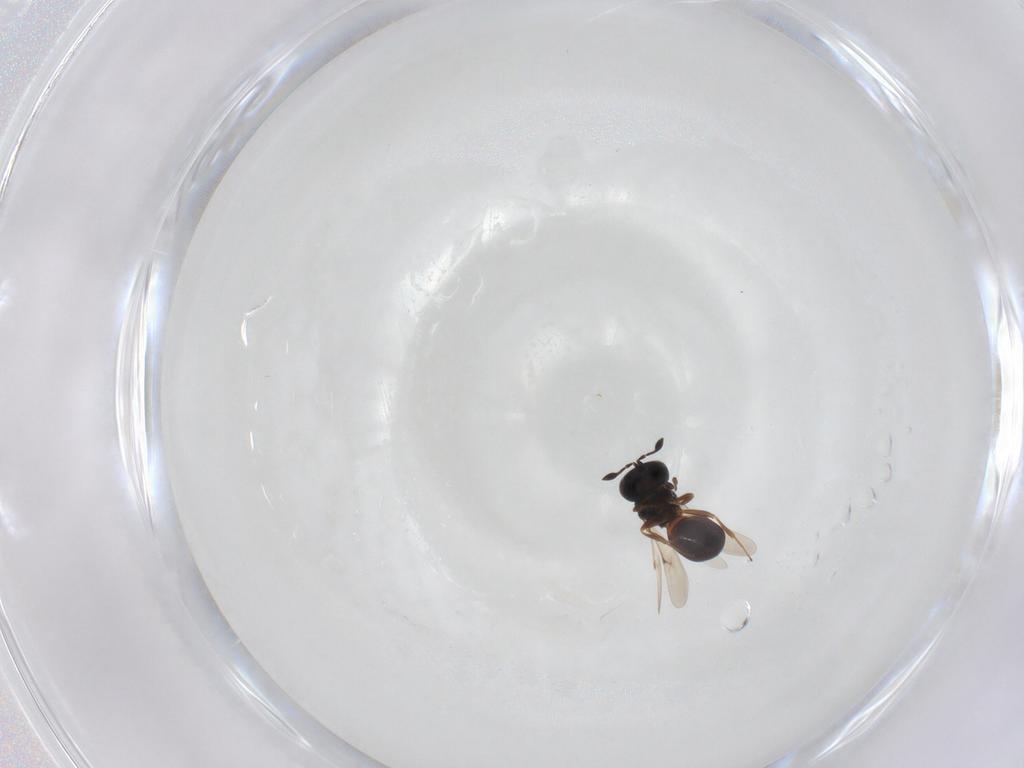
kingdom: Animalia
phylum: Arthropoda
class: Insecta
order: Hymenoptera
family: Scelionidae
